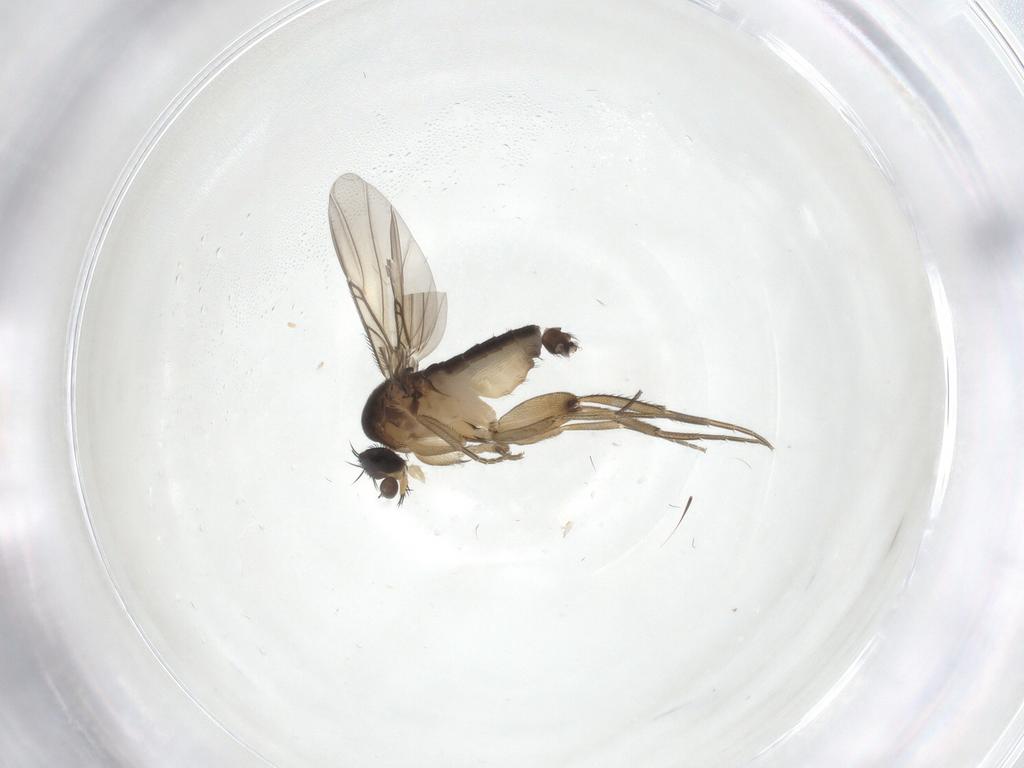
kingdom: Animalia
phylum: Arthropoda
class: Insecta
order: Diptera
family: Phoridae
